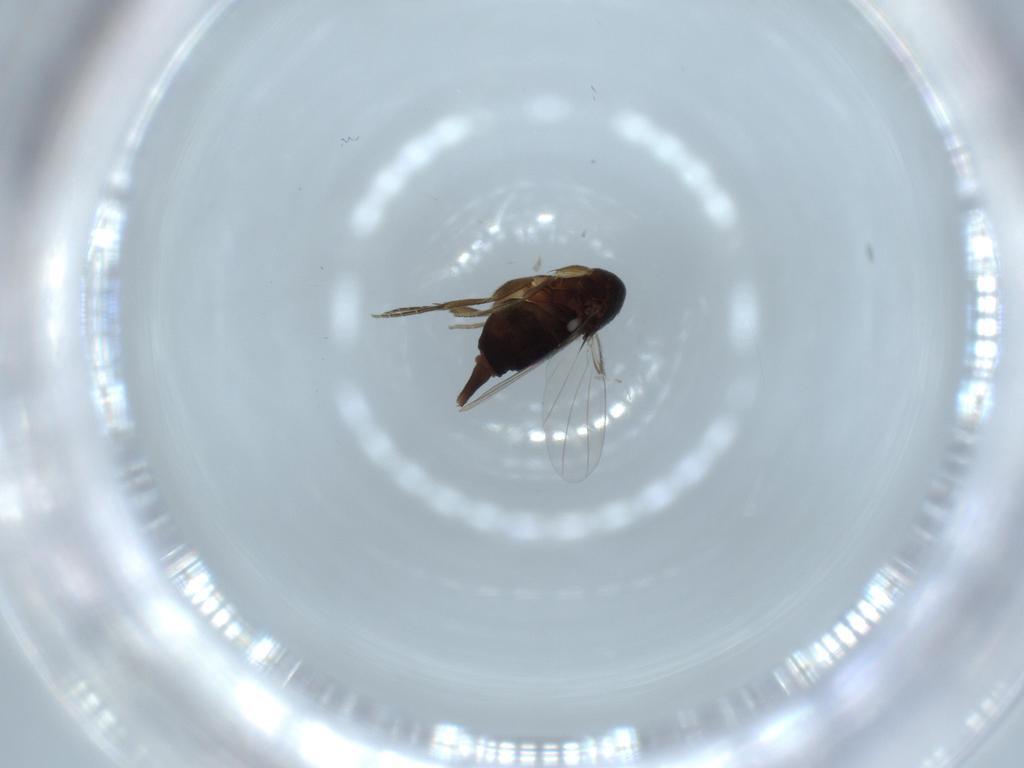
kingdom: Animalia
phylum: Arthropoda
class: Insecta
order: Diptera
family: Phoridae
